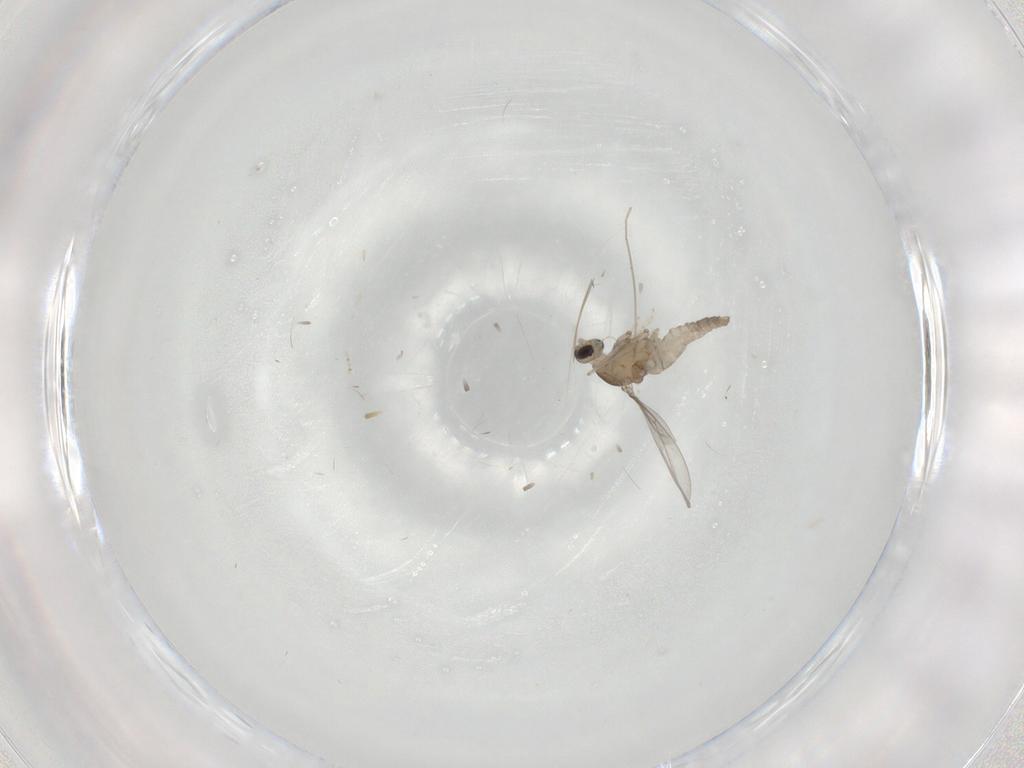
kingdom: Animalia
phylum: Arthropoda
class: Insecta
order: Diptera
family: Cecidomyiidae
